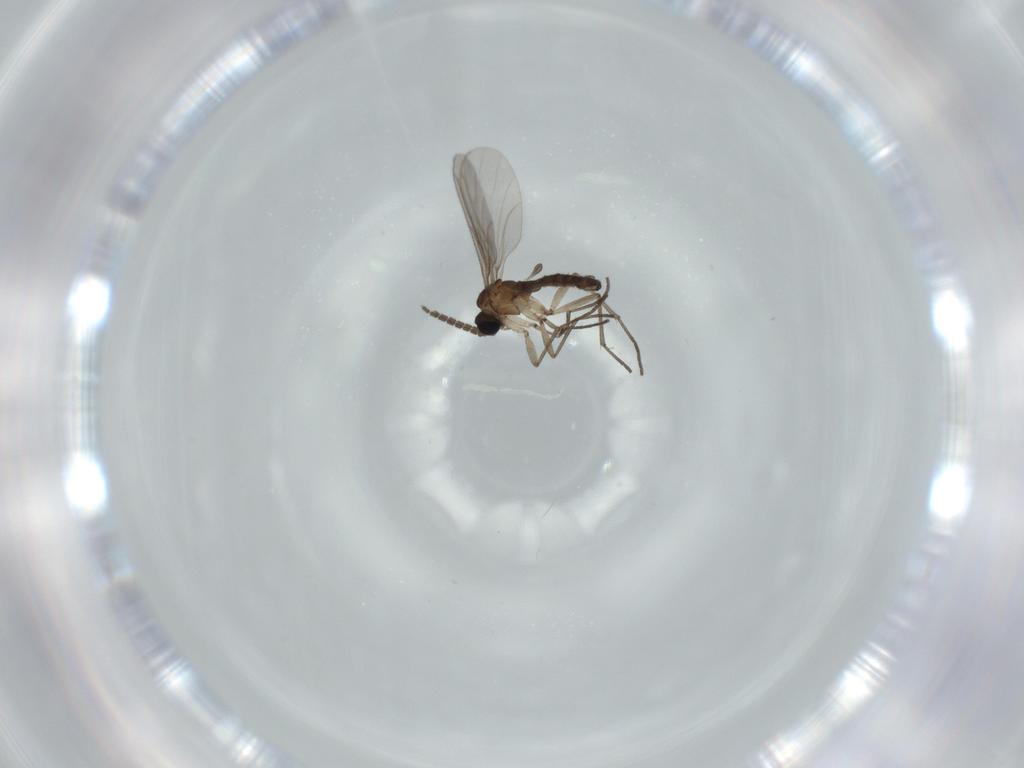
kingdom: Animalia
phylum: Arthropoda
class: Insecta
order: Diptera
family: Sciaridae
